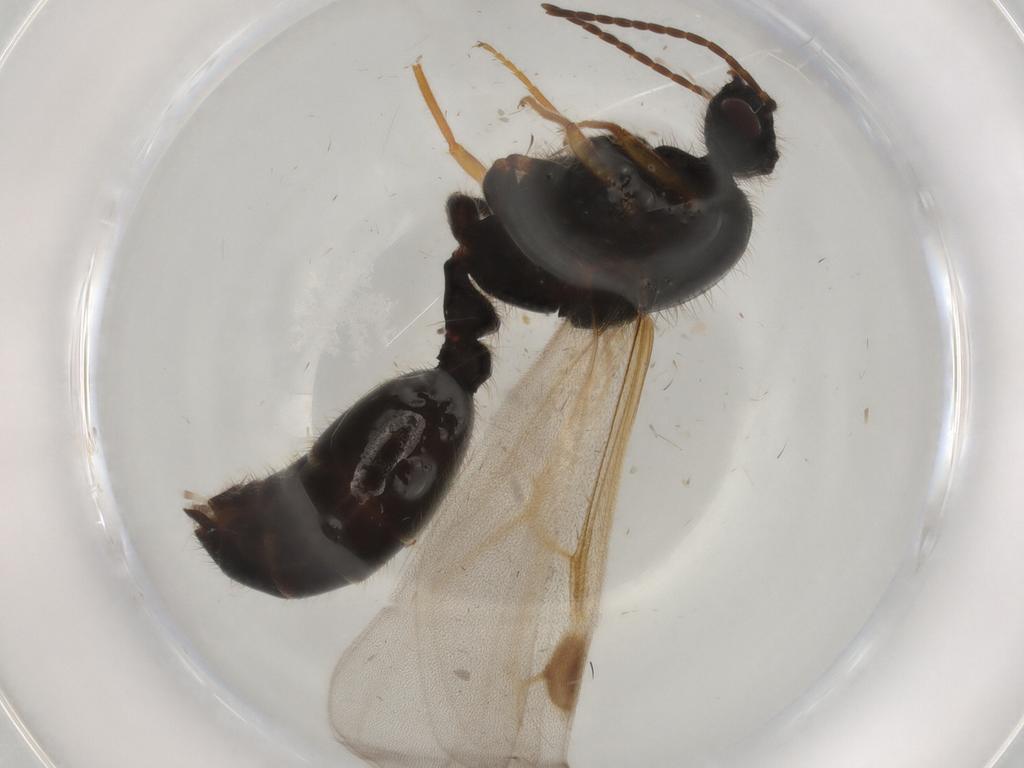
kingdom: Animalia
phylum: Arthropoda
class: Insecta
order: Hymenoptera
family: Formicidae
